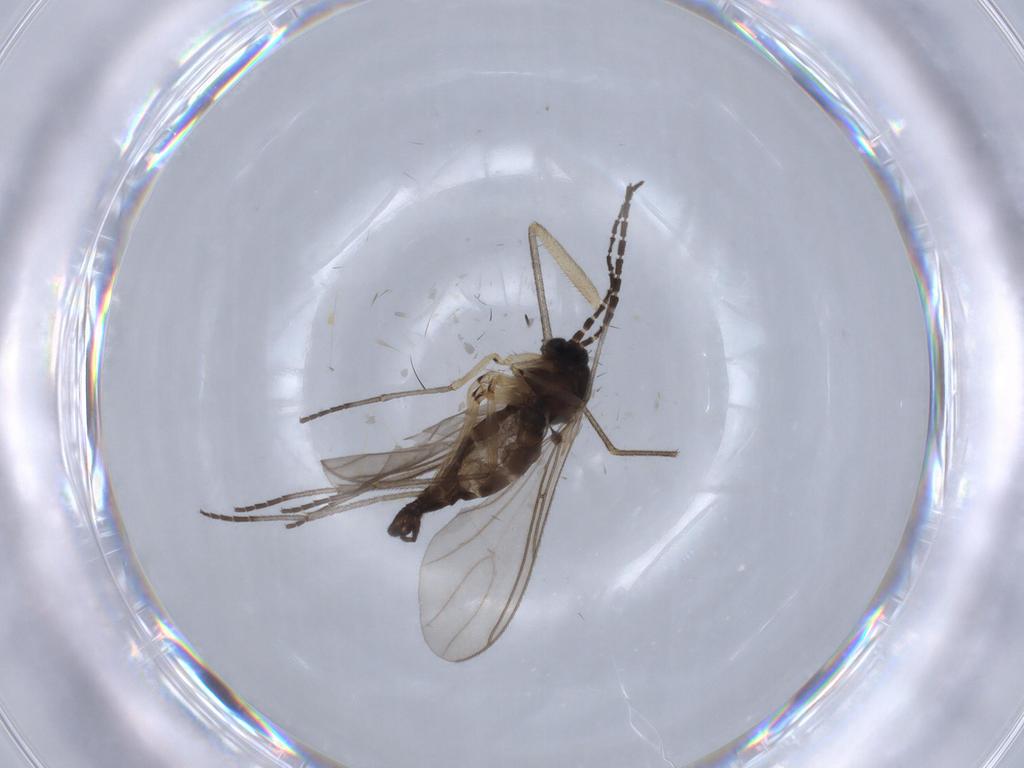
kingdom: Animalia
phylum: Arthropoda
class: Insecta
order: Diptera
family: Sciaridae
